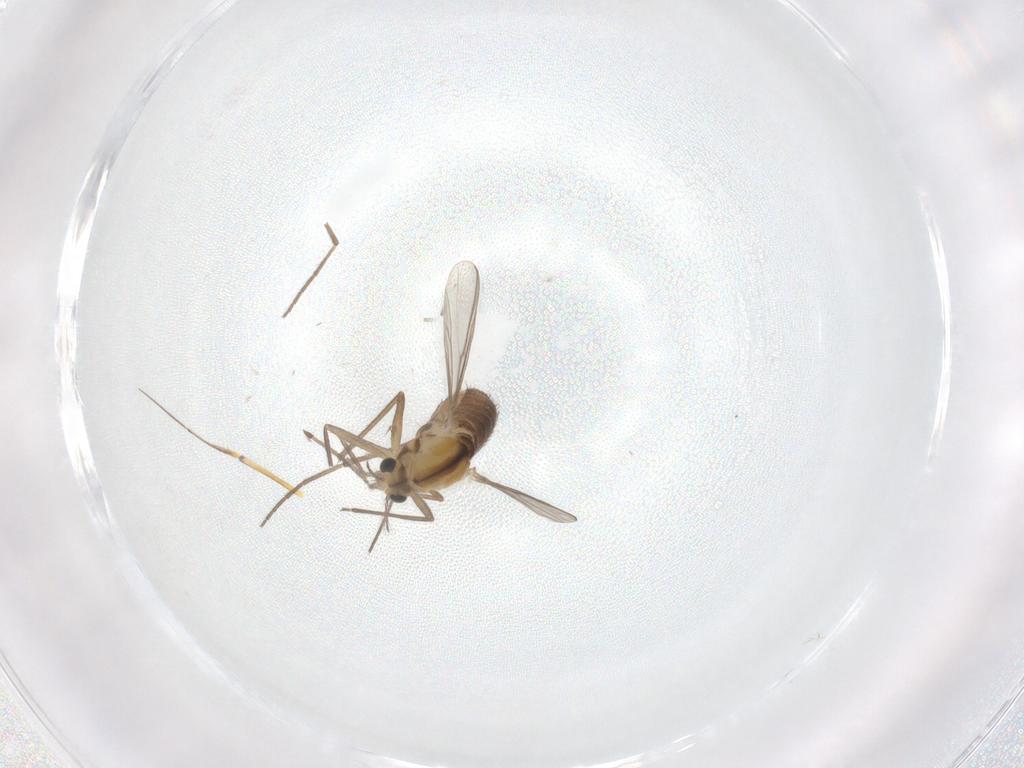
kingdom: Animalia
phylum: Arthropoda
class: Insecta
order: Diptera
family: Chironomidae
